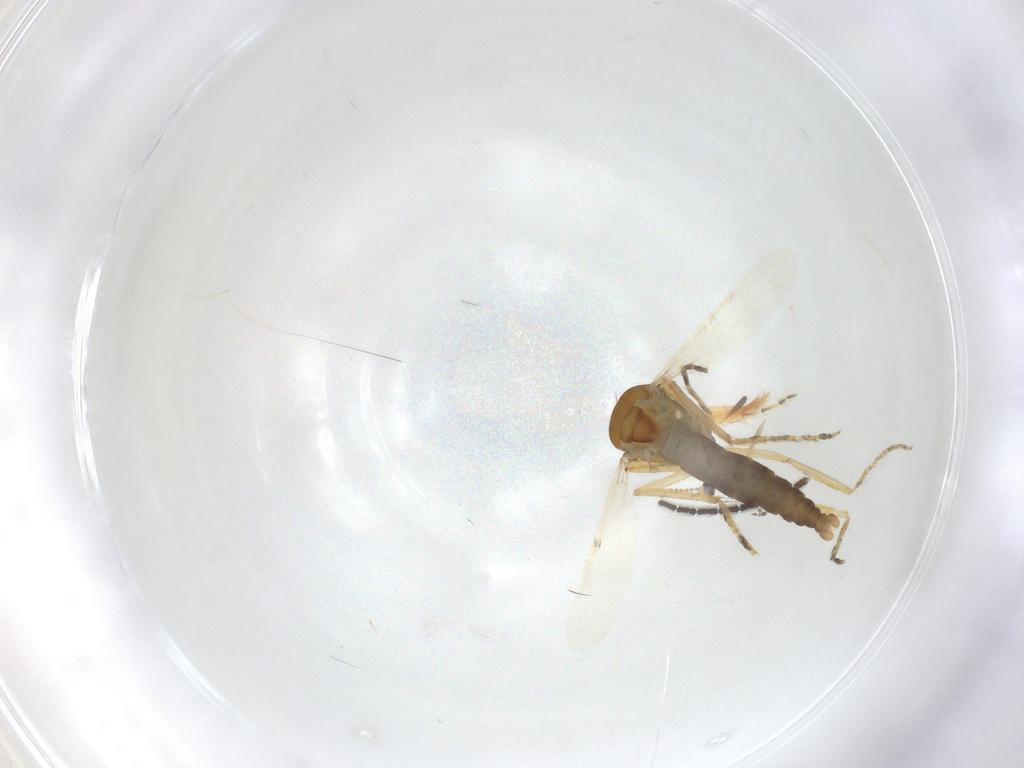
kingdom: Animalia
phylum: Arthropoda
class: Insecta
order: Diptera
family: Ceratopogonidae
